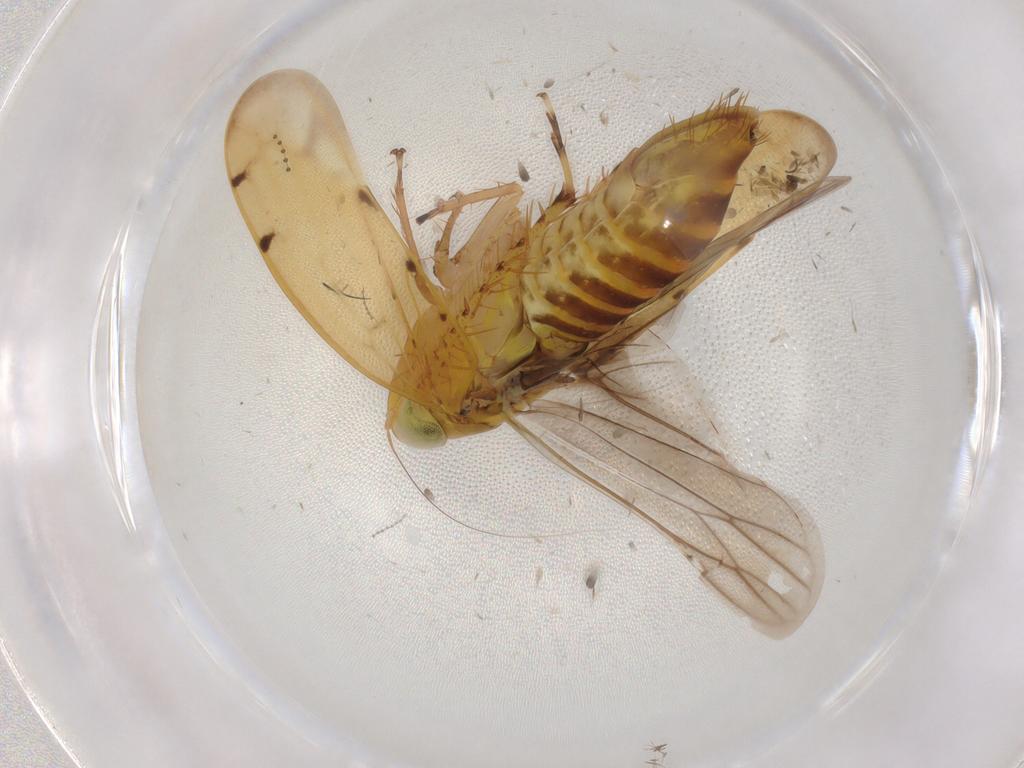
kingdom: Animalia
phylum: Arthropoda
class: Insecta
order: Hemiptera
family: Cicadellidae
